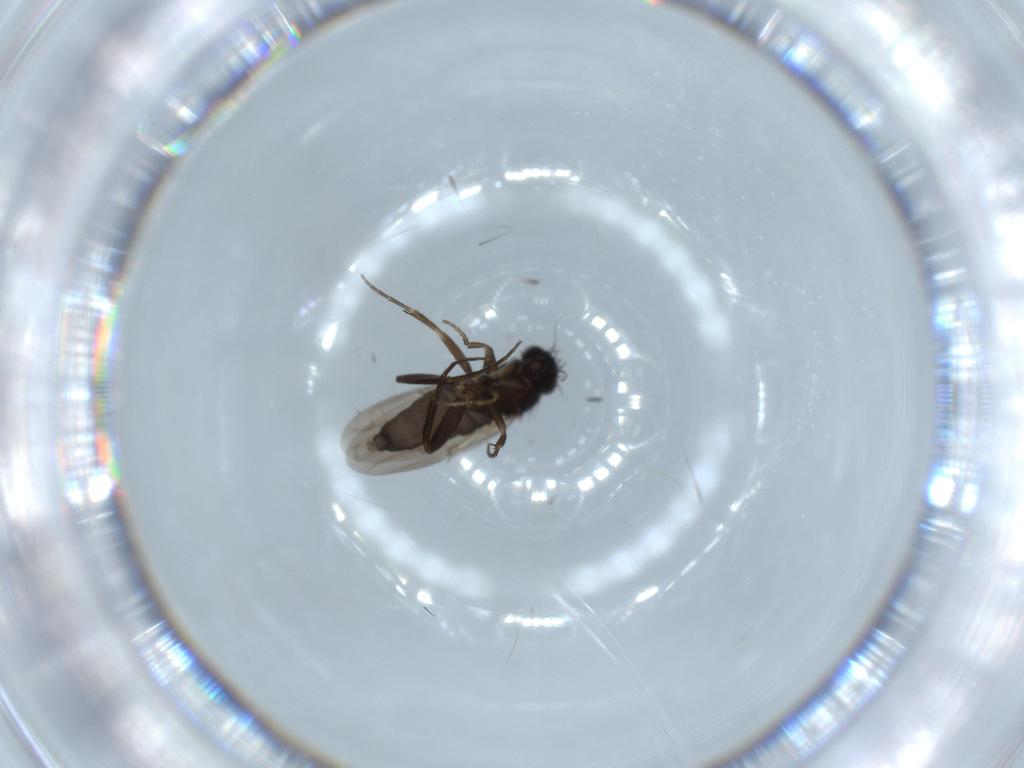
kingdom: Animalia
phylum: Arthropoda
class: Insecta
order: Diptera
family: Phoridae
